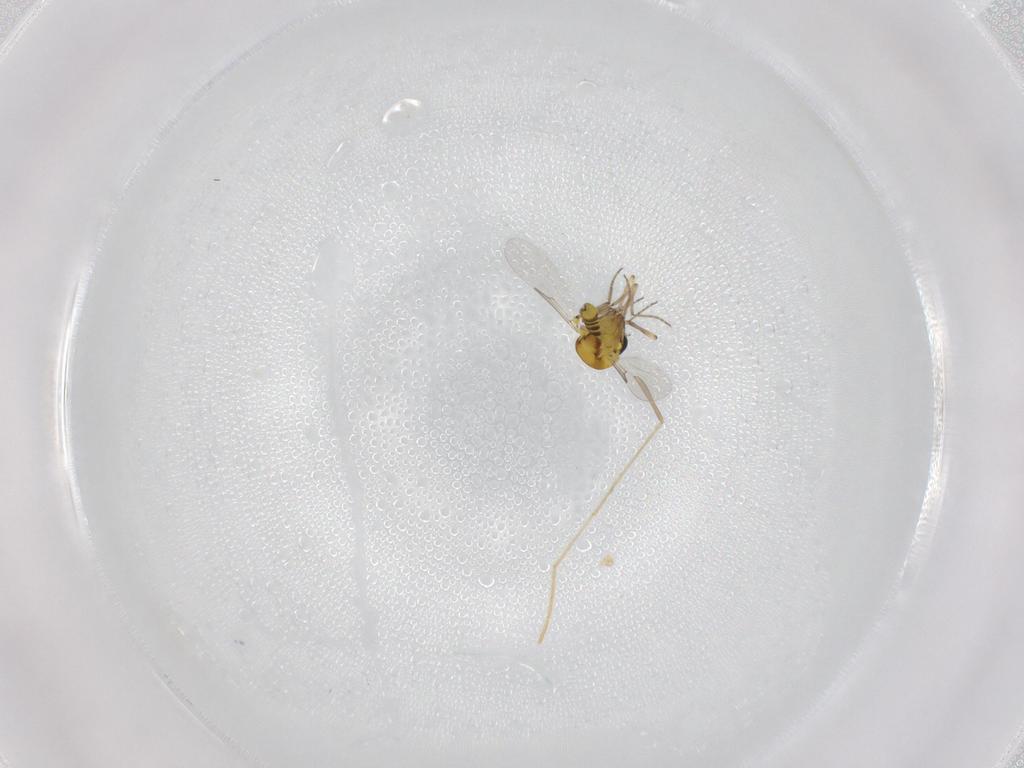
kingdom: Animalia
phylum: Arthropoda
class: Insecta
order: Diptera
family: Ceratopogonidae
